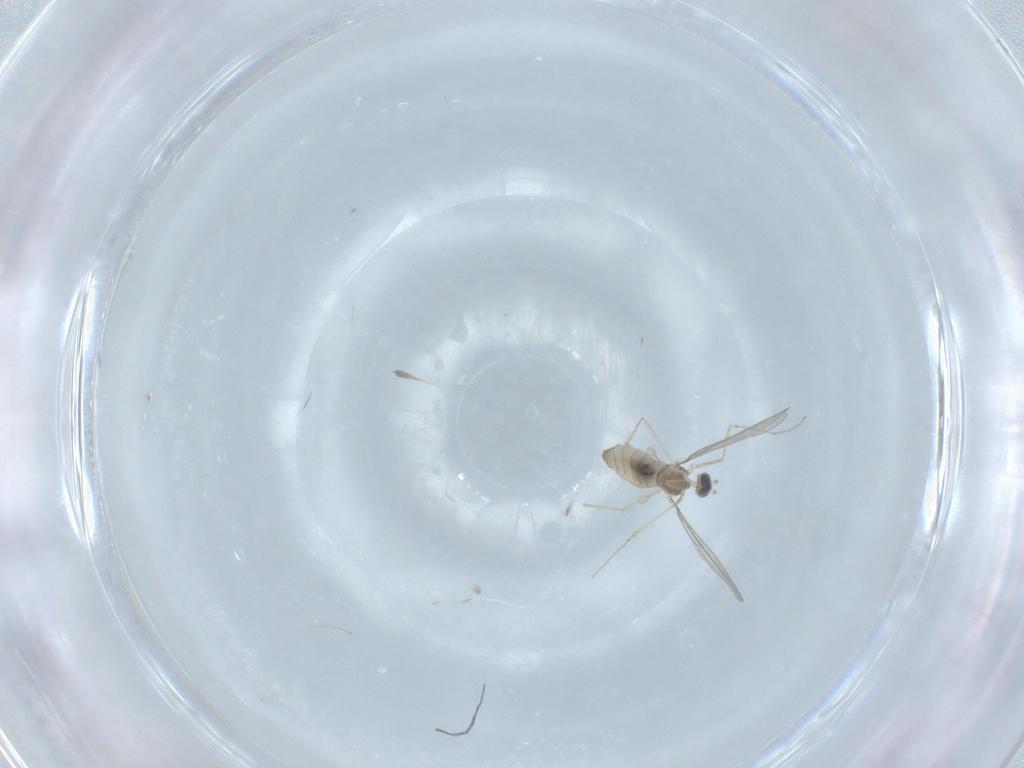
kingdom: Animalia
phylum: Arthropoda
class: Insecta
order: Diptera
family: Cecidomyiidae
